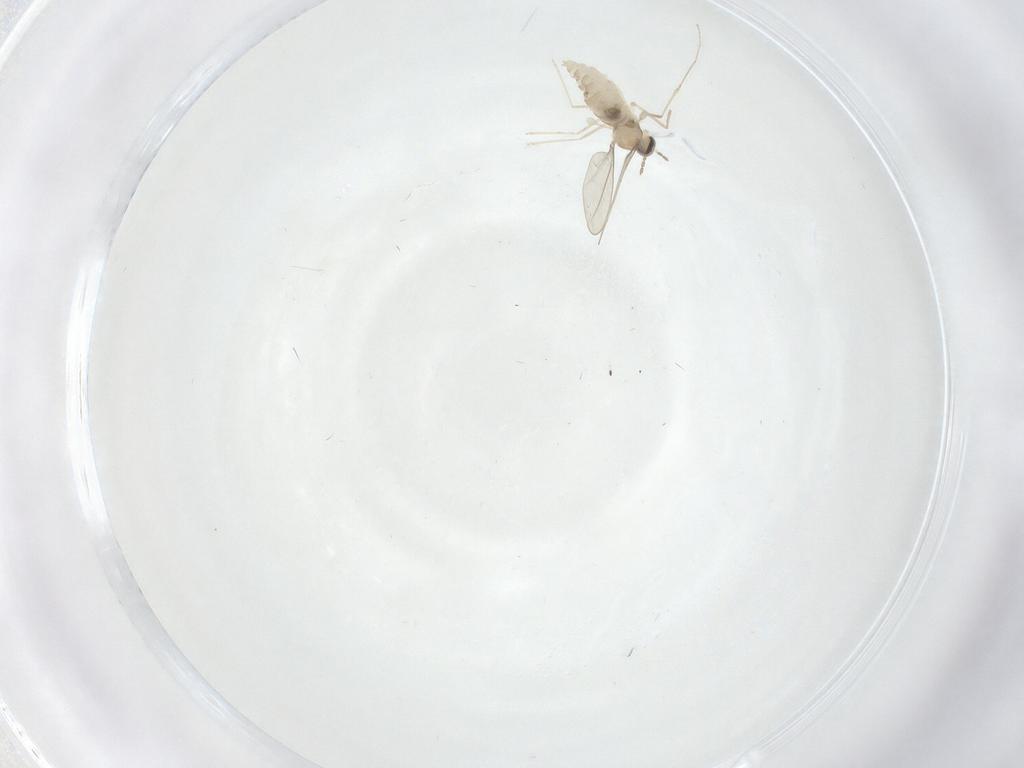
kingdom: Animalia
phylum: Arthropoda
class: Insecta
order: Diptera
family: Cecidomyiidae
